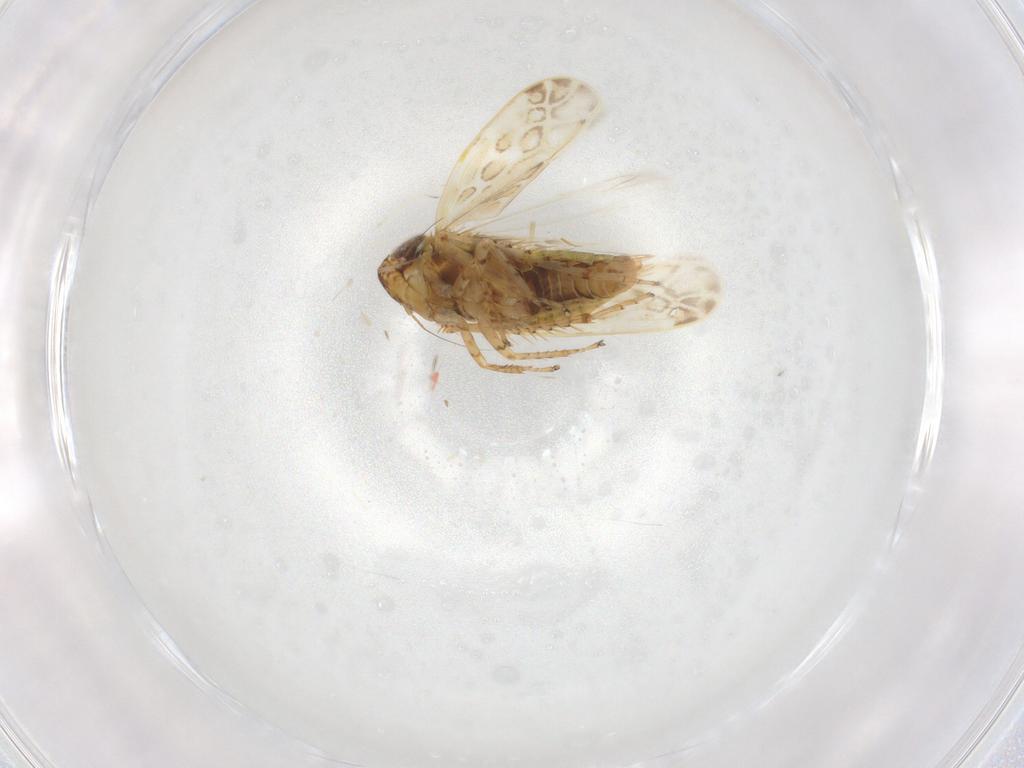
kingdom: Animalia
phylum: Arthropoda
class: Insecta
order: Hemiptera
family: Cicadellidae
